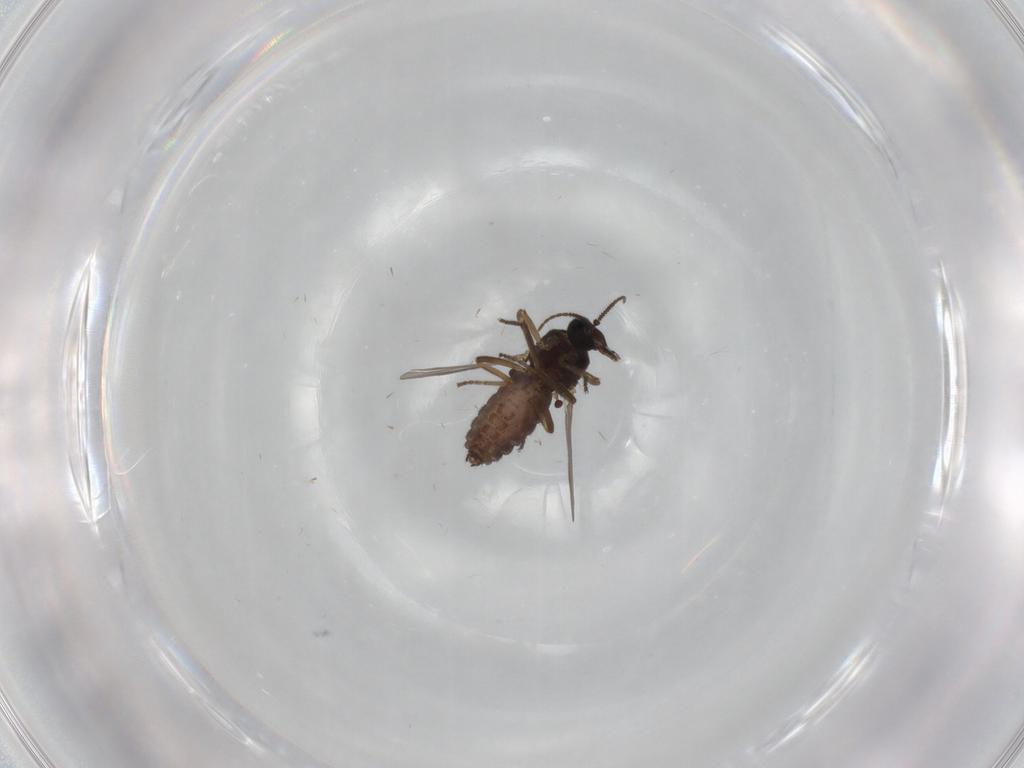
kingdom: Animalia
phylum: Arthropoda
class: Insecta
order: Diptera
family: Ceratopogonidae
